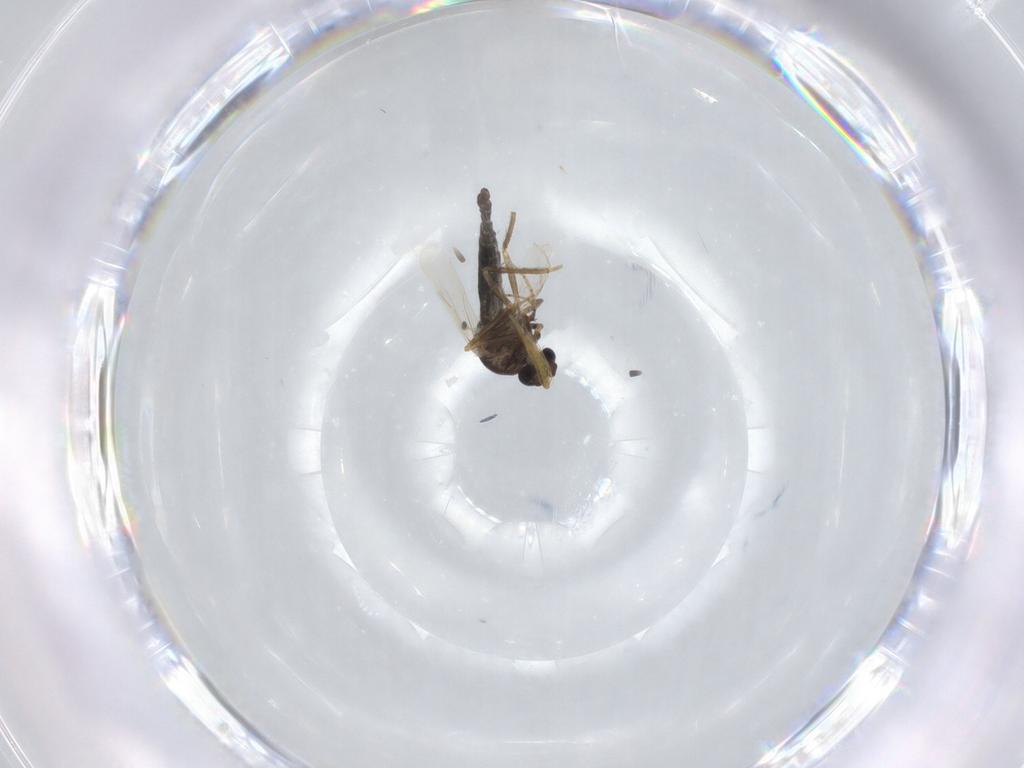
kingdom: Animalia
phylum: Arthropoda
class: Insecta
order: Diptera
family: Ceratopogonidae
